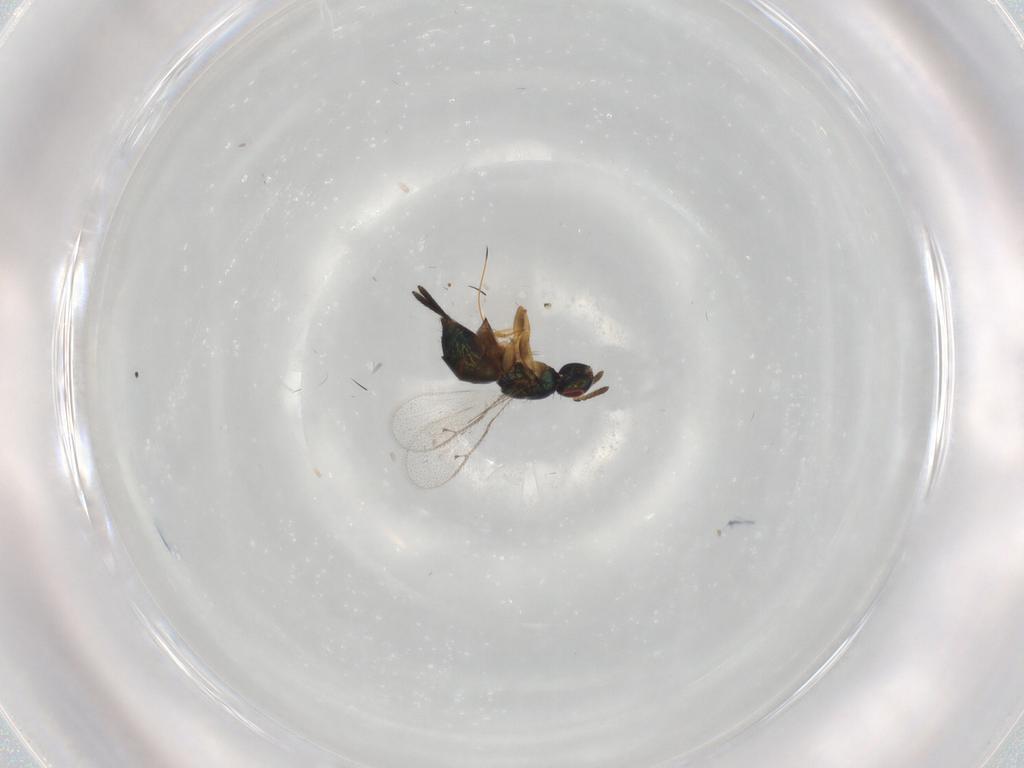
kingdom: Animalia
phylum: Arthropoda
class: Insecta
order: Hymenoptera
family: Torymidae
